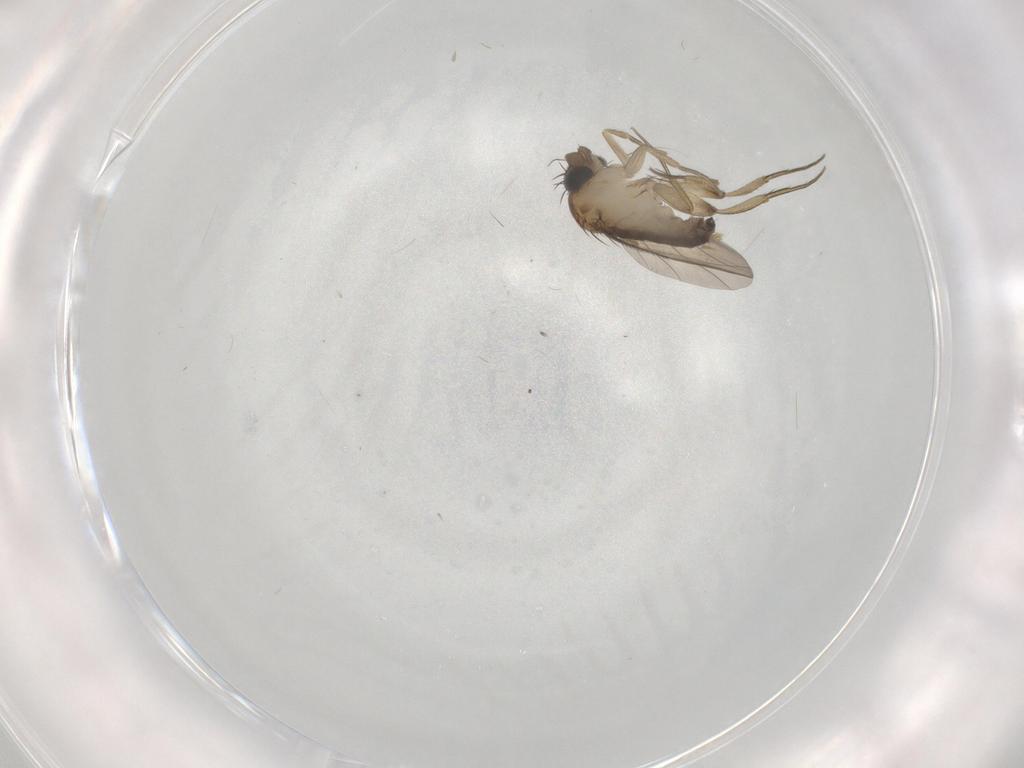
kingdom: Animalia
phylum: Arthropoda
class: Insecta
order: Diptera
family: Phoridae
